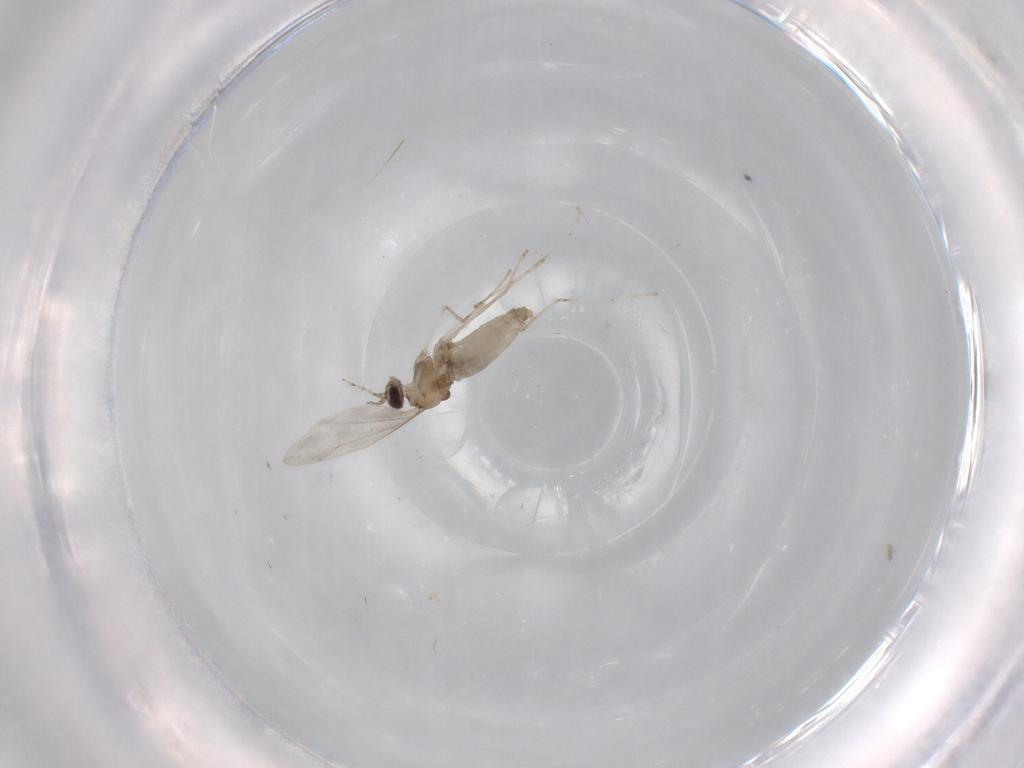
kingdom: Animalia
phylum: Arthropoda
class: Insecta
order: Diptera
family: Cecidomyiidae
